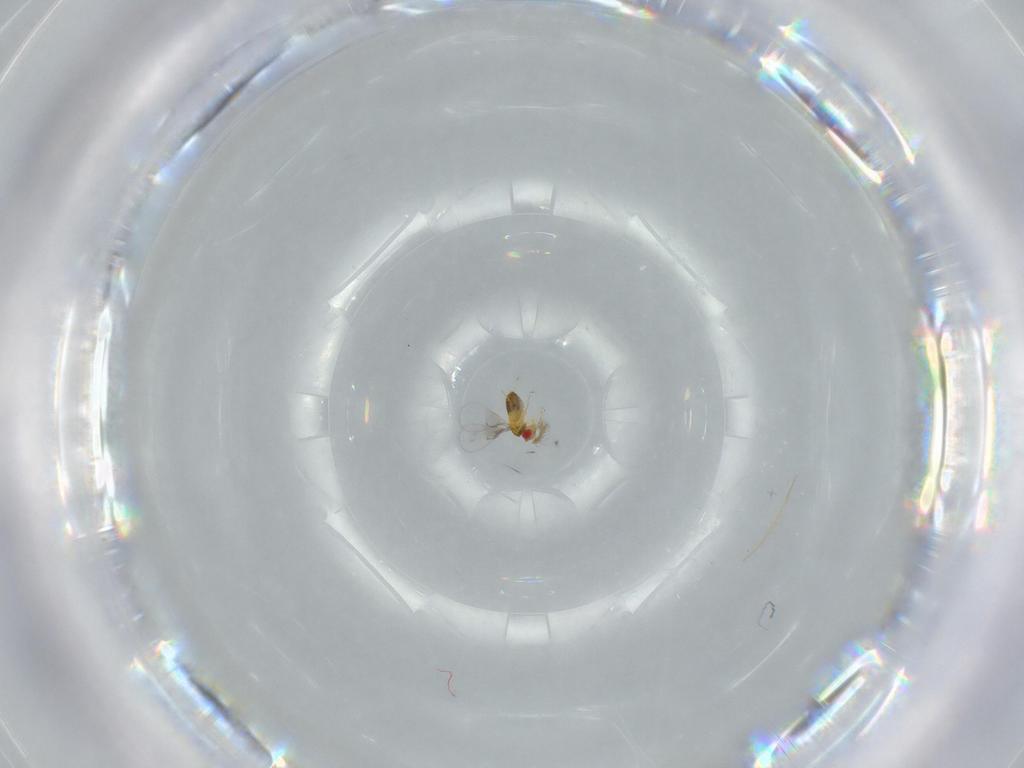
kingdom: Animalia
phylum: Arthropoda
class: Insecta
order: Hymenoptera
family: Trichogrammatidae
